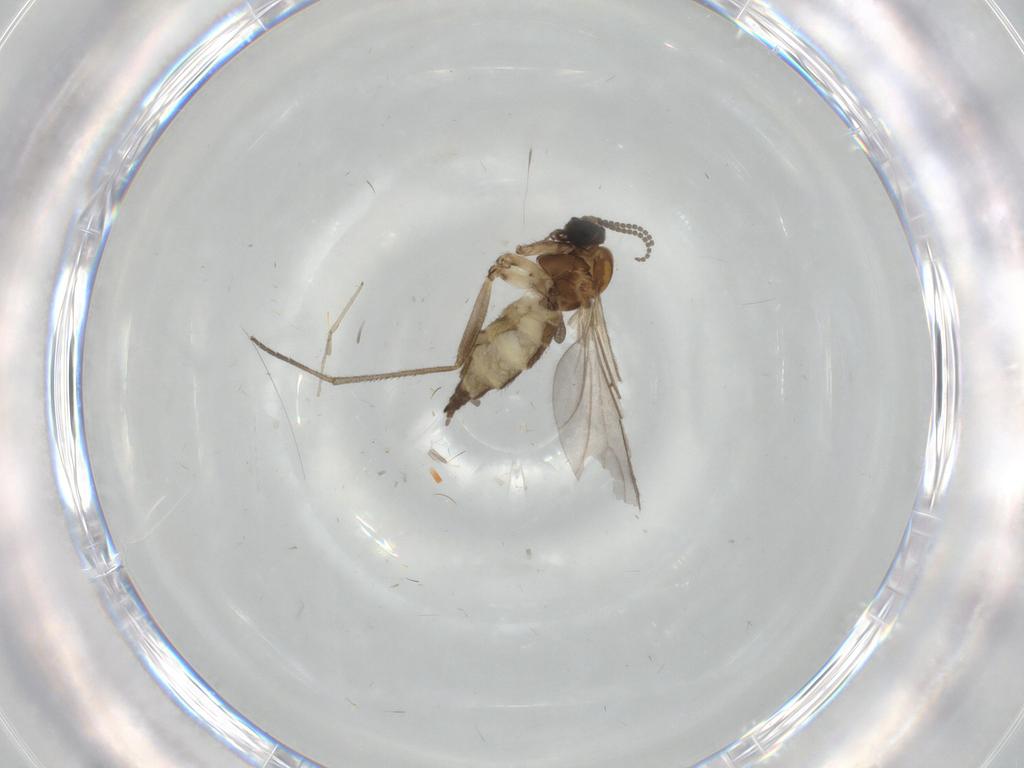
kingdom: Animalia
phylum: Arthropoda
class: Insecta
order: Diptera
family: Sciaridae
